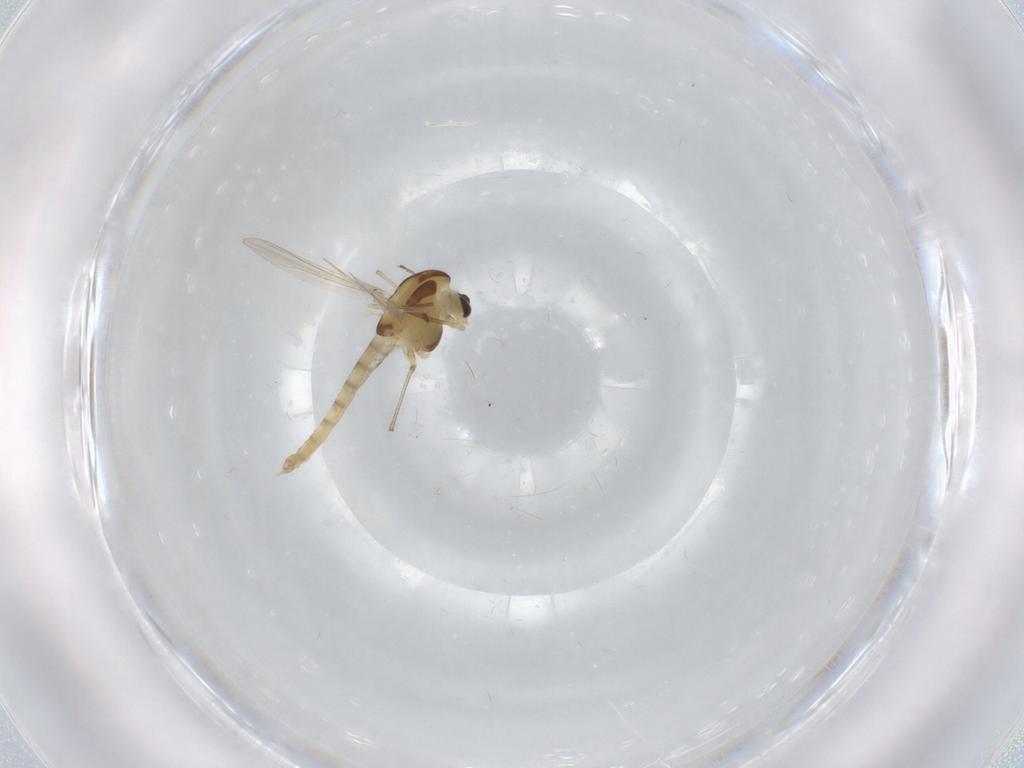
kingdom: Animalia
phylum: Arthropoda
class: Insecta
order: Diptera
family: Chironomidae
